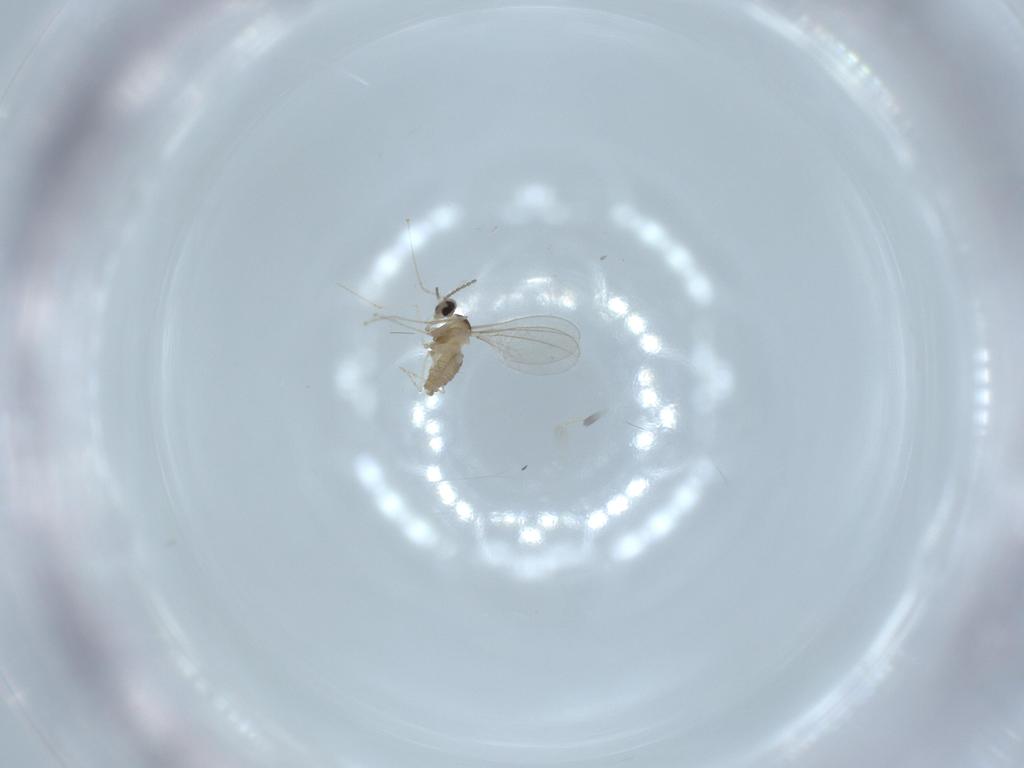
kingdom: Animalia
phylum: Arthropoda
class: Insecta
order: Diptera
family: Cecidomyiidae
